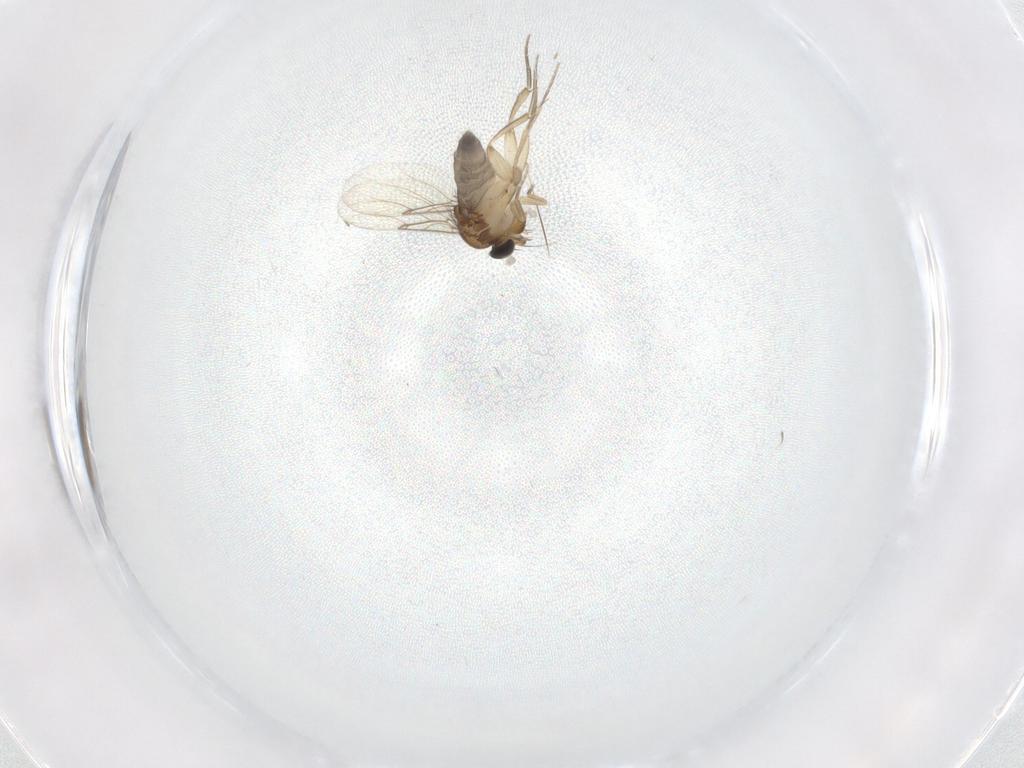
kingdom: Animalia
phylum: Arthropoda
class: Insecta
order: Diptera
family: Phoridae
